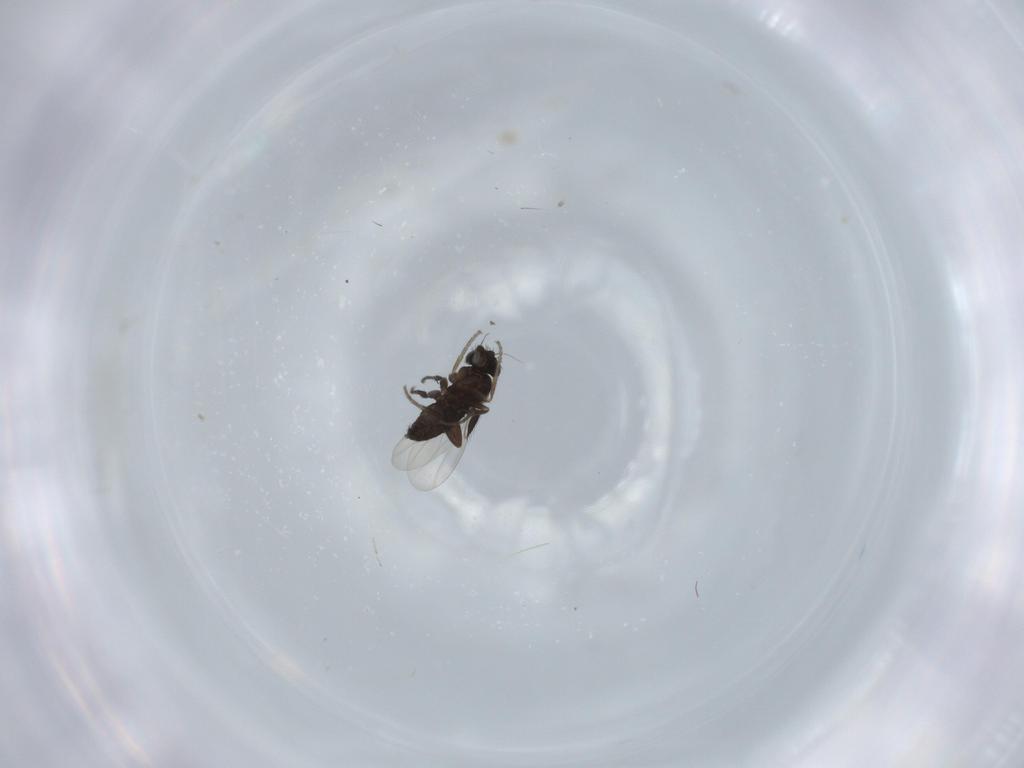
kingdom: Animalia
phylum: Arthropoda
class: Insecta
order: Diptera
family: Phoridae
